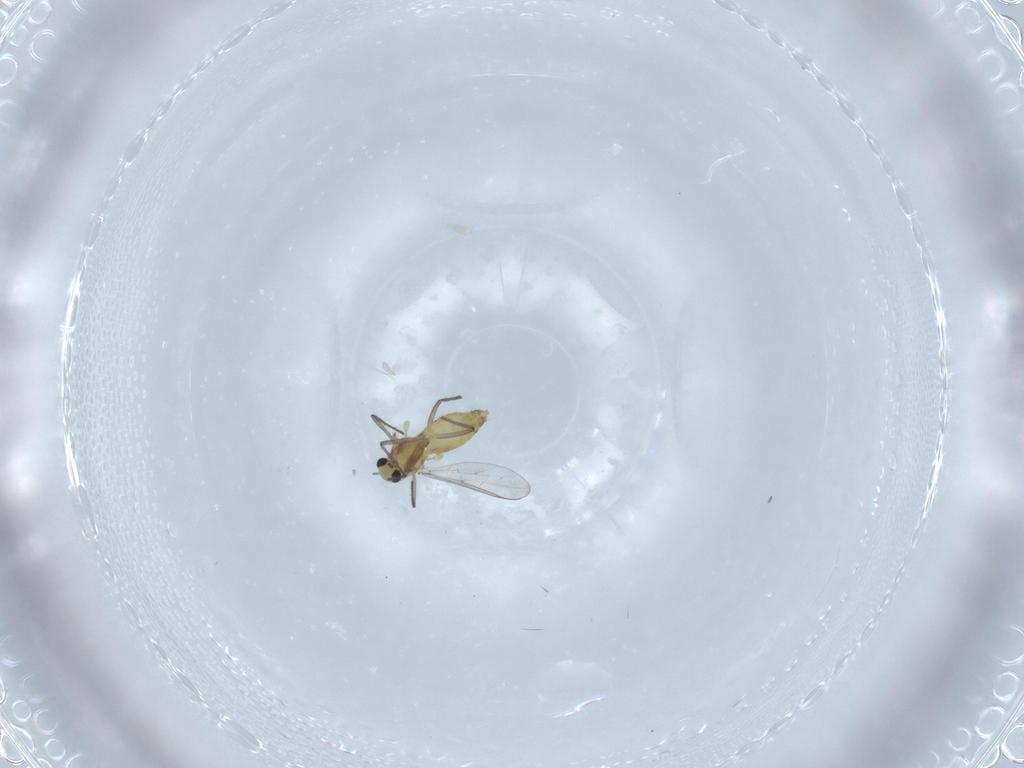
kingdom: Animalia
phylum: Arthropoda
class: Insecta
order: Diptera
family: Chironomidae
